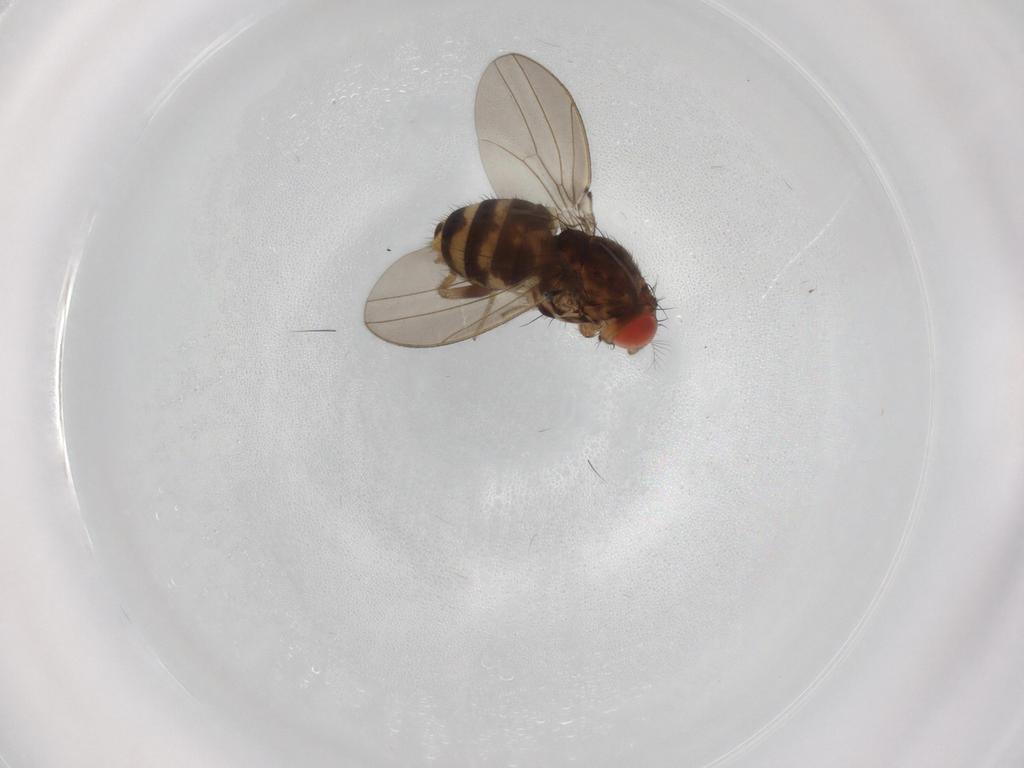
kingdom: Animalia
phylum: Arthropoda
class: Insecta
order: Diptera
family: Drosophilidae
